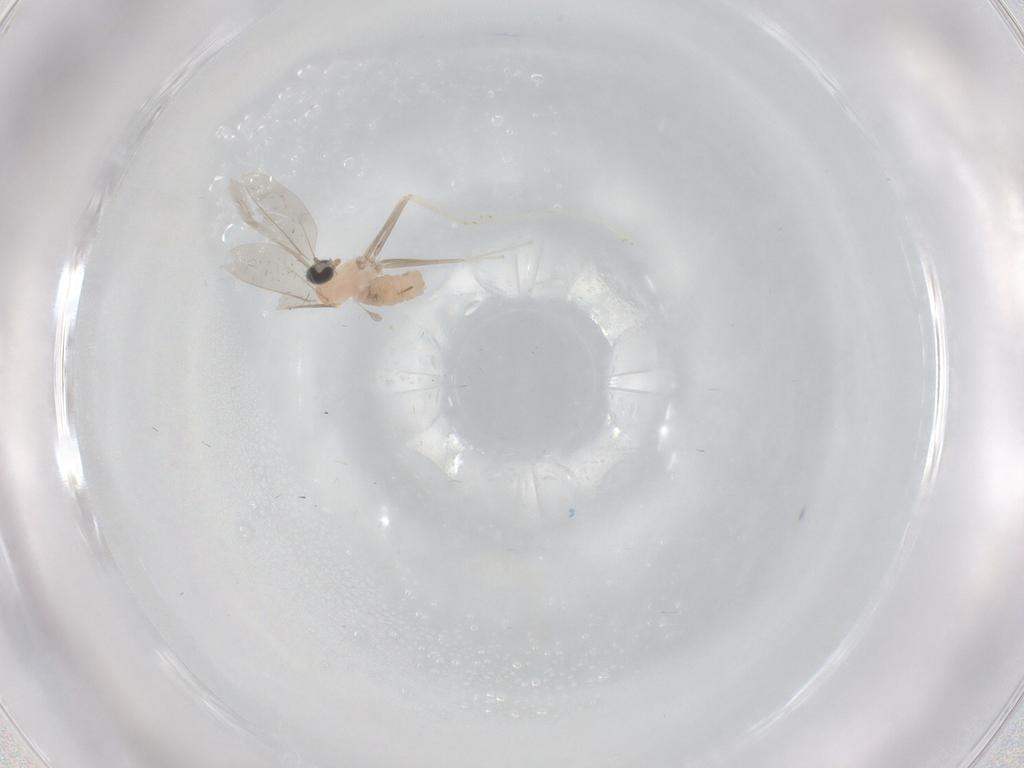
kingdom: Animalia
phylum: Arthropoda
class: Insecta
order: Diptera
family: Cecidomyiidae
